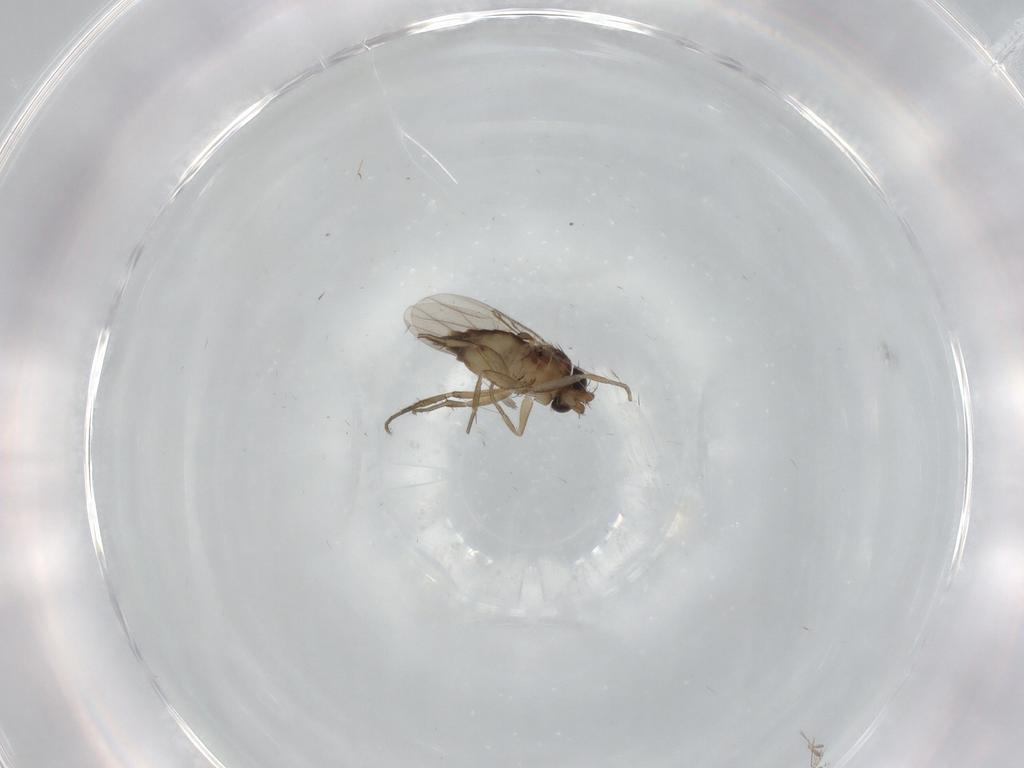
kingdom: Animalia
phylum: Arthropoda
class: Insecta
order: Diptera
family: Phoridae
